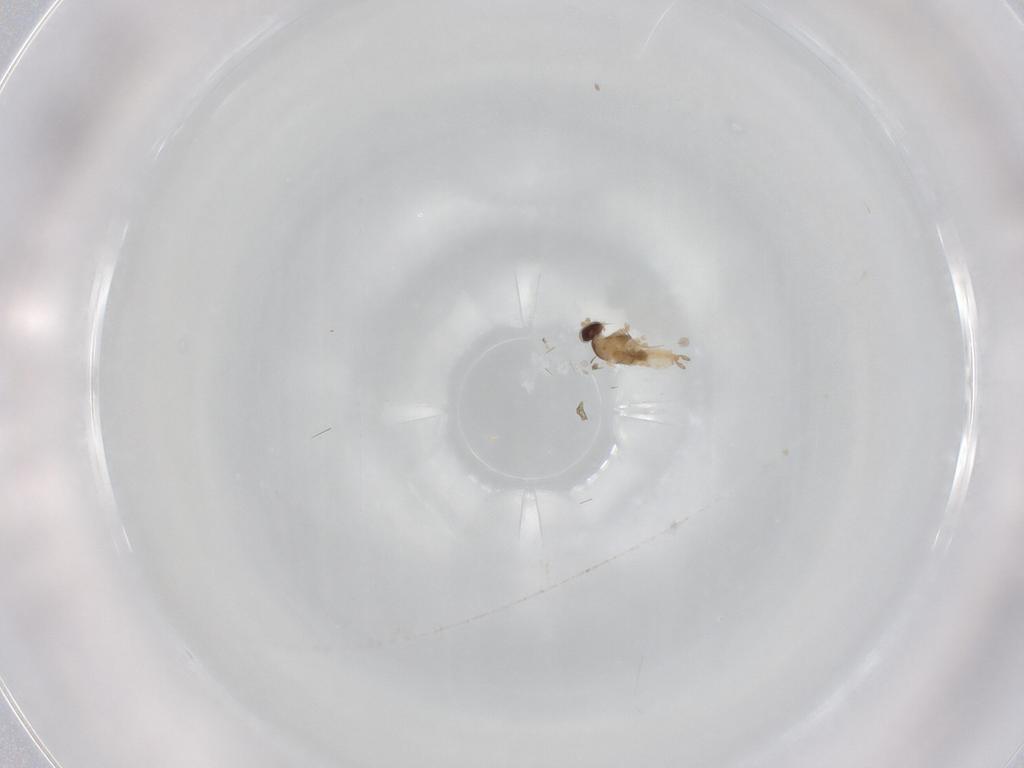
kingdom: Animalia
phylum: Arthropoda
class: Insecta
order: Diptera
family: Cecidomyiidae
